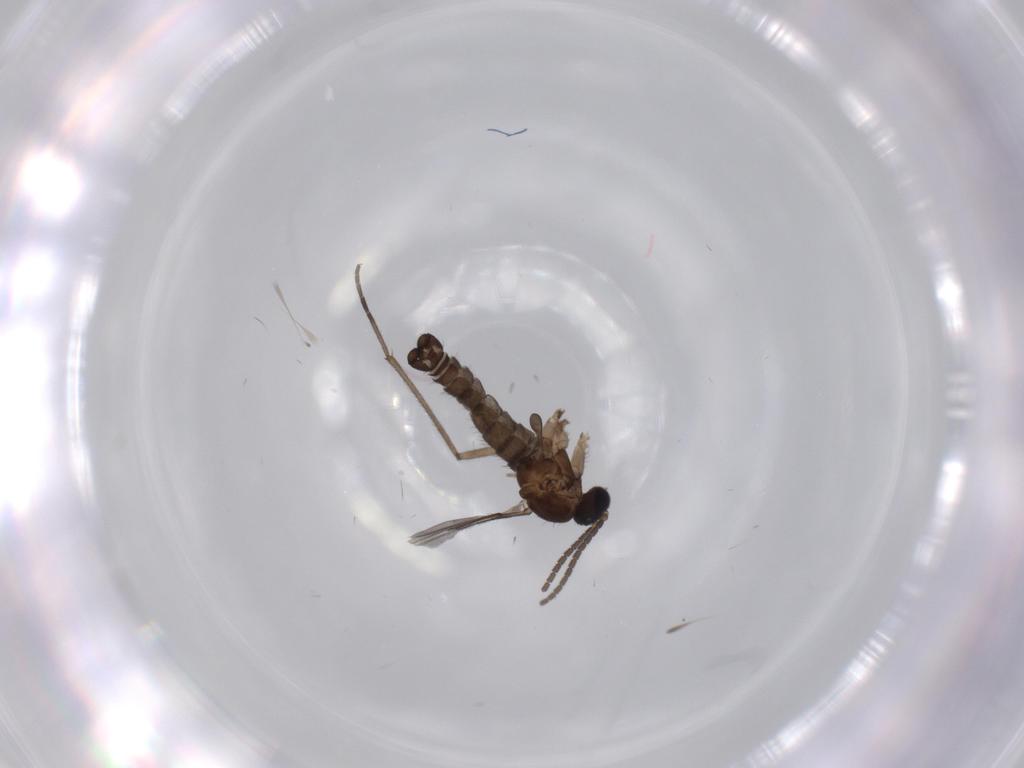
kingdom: Animalia
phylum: Arthropoda
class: Insecta
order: Diptera
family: Sciaridae
